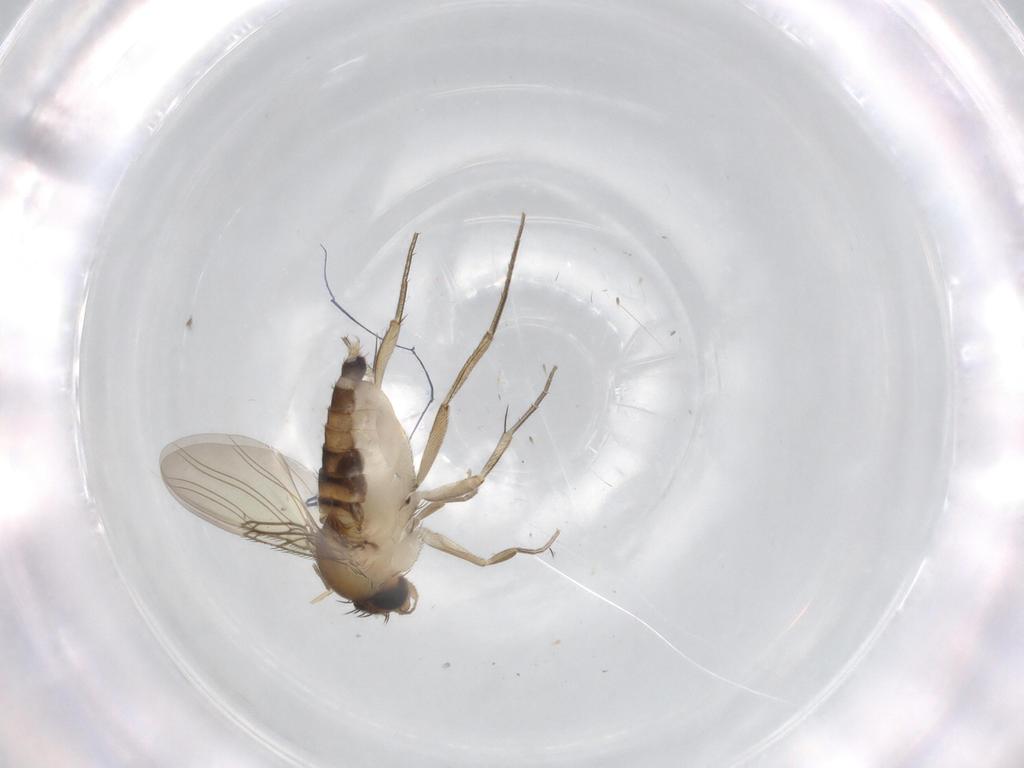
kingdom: Animalia
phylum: Arthropoda
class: Insecta
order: Diptera
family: Phoridae
